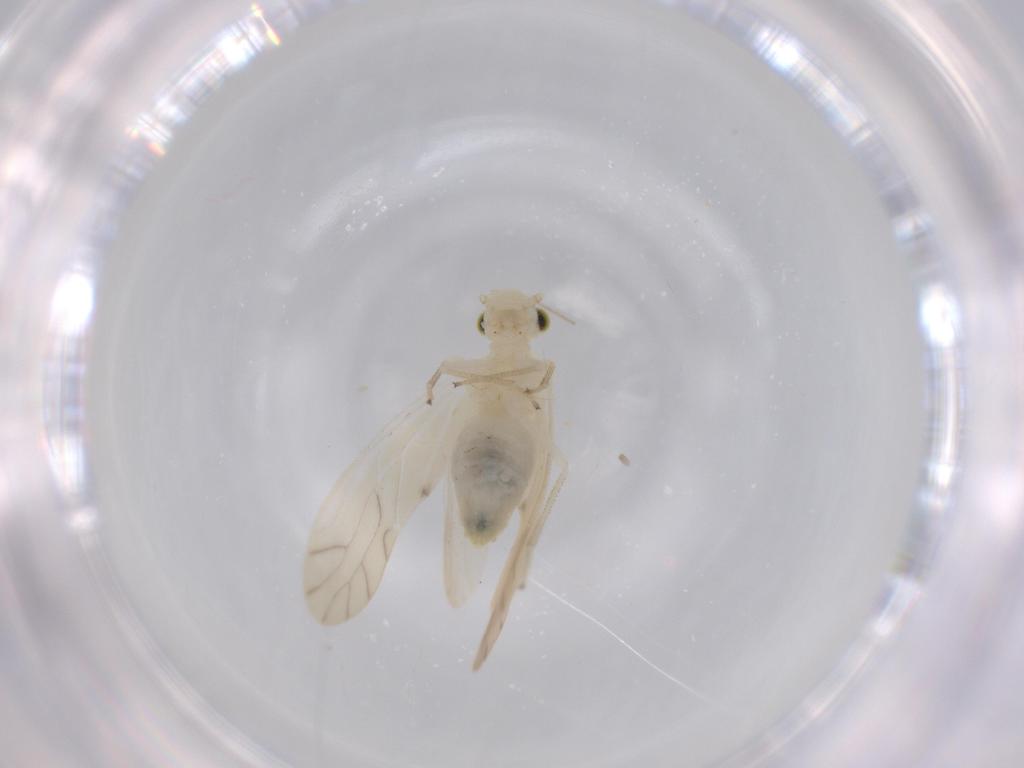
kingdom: Animalia
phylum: Arthropoda
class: Insecta
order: Psocodea
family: Caeciliusidae
